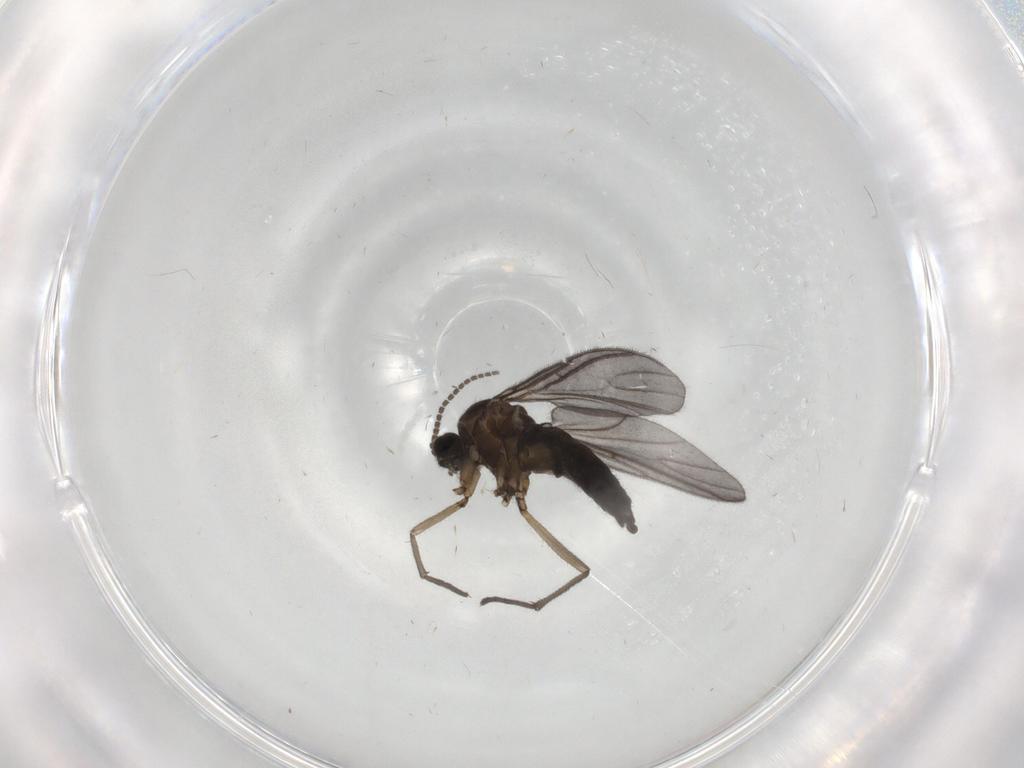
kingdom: Animalia
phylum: Arthropoda
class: Insecta
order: Diptera
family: Sciaridae
